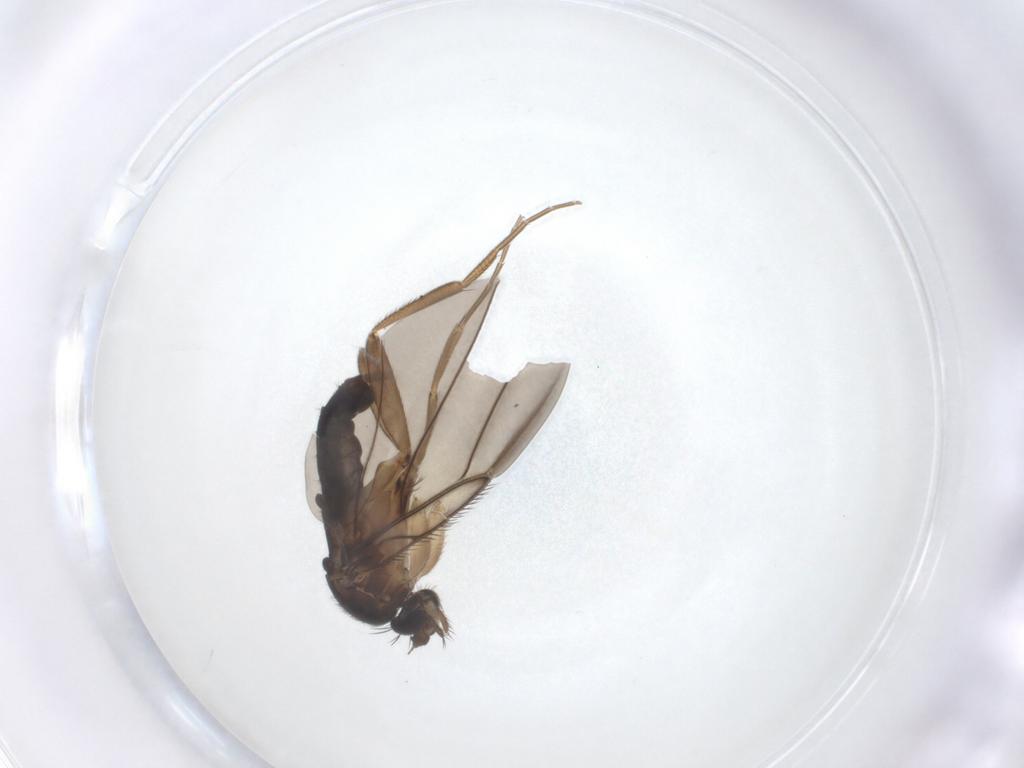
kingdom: Animalia
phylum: Arthropoda
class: Insecta
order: Diptera
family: Phoridae
